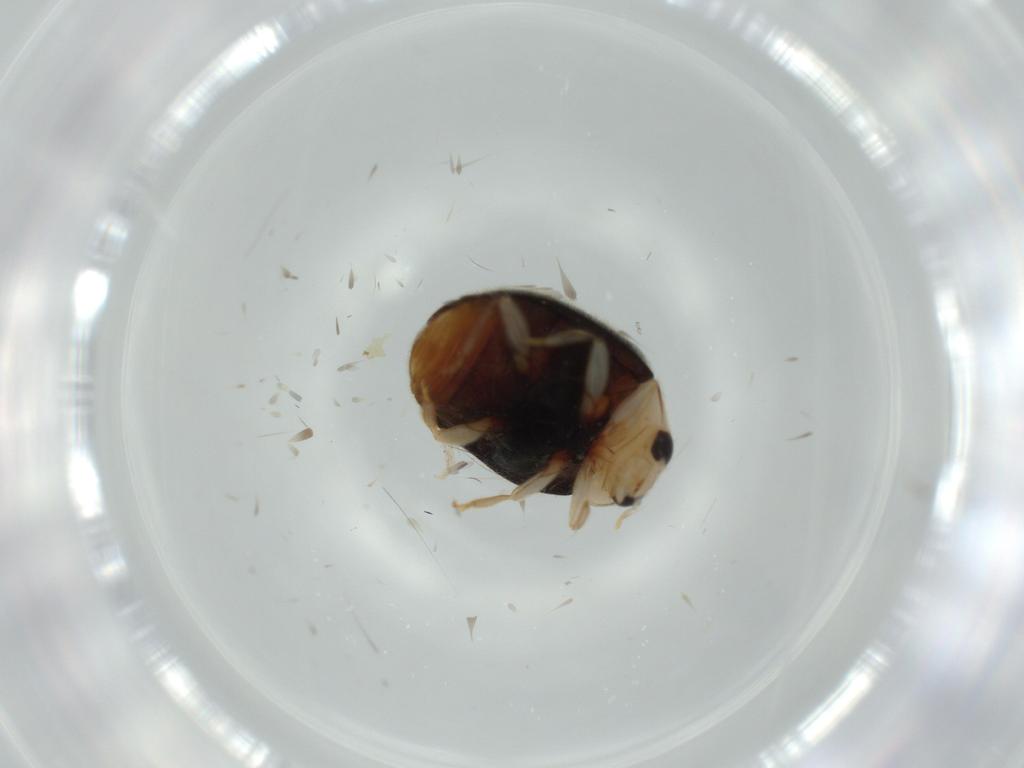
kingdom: Animalia
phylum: Arthropoda
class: Insecta
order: Coleoptera
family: Coccinellidae
